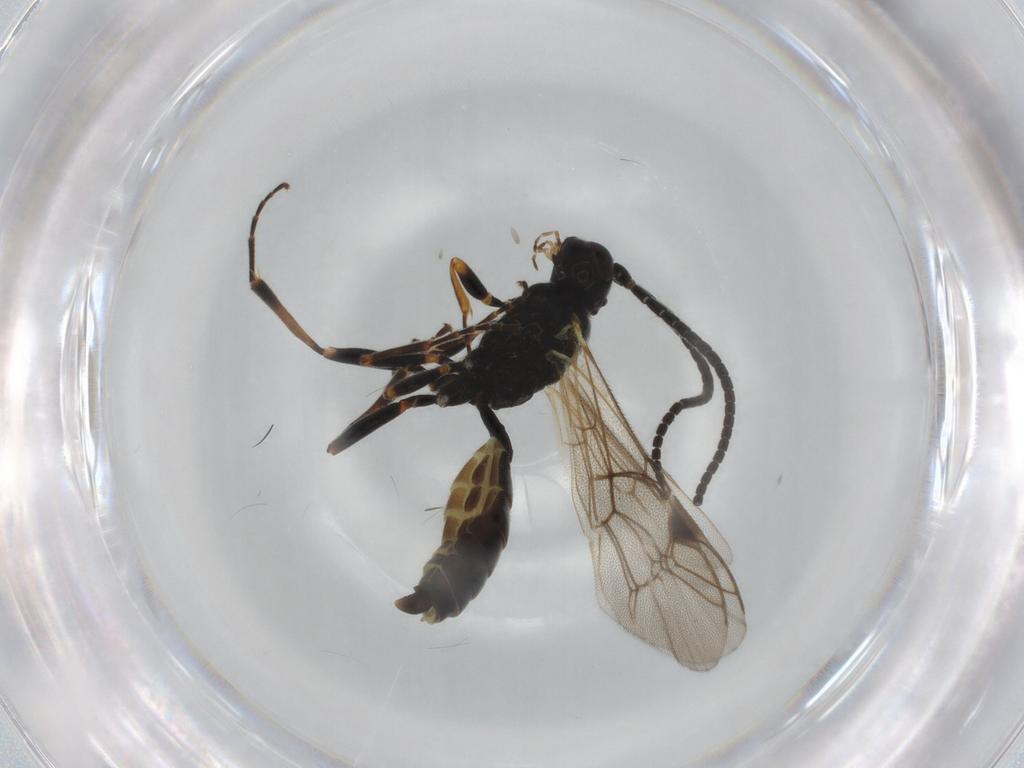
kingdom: Animalia
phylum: Arthropoda
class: Insecta
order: Hymenoptera
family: Ichneumonidae
